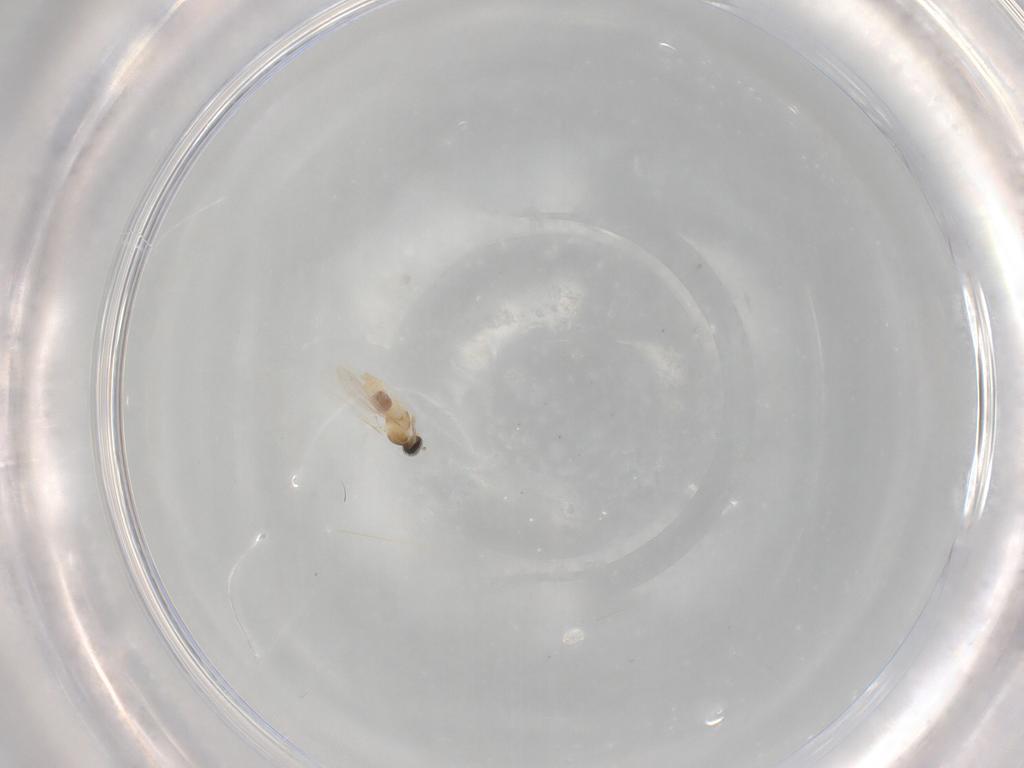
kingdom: Animalia
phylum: Arthropoda
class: Insecta
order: Diptera
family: Cecidomyiidae
